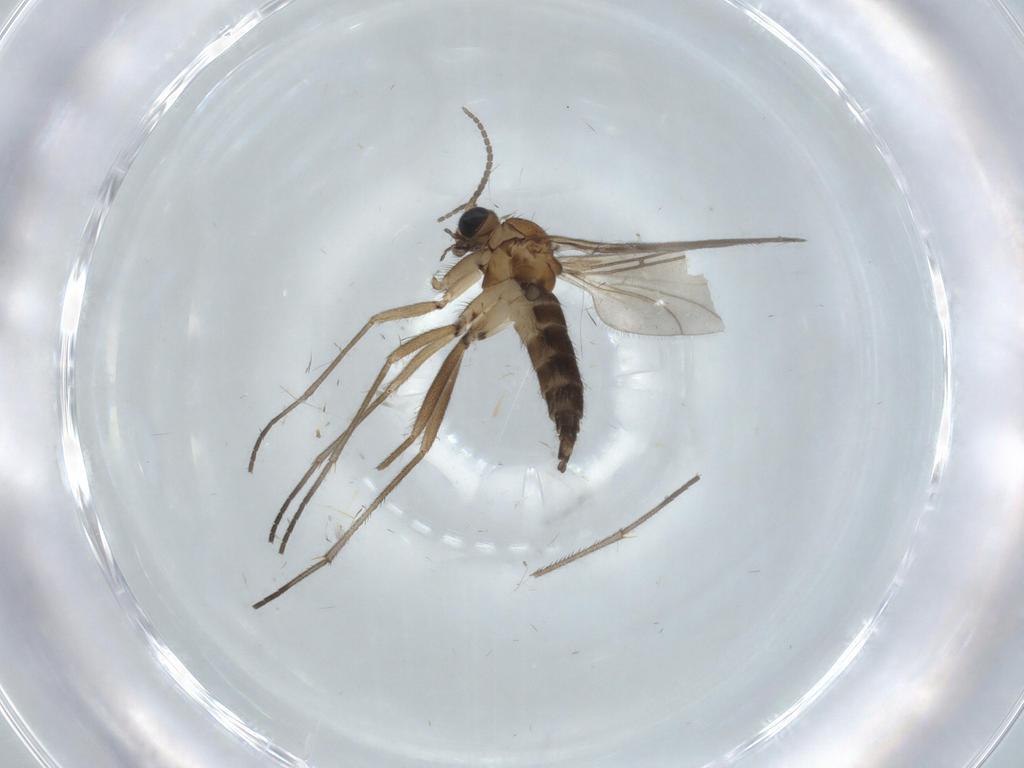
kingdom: Animalia
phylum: Arthropoda
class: Insecta
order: Diptera
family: Sciaridae
